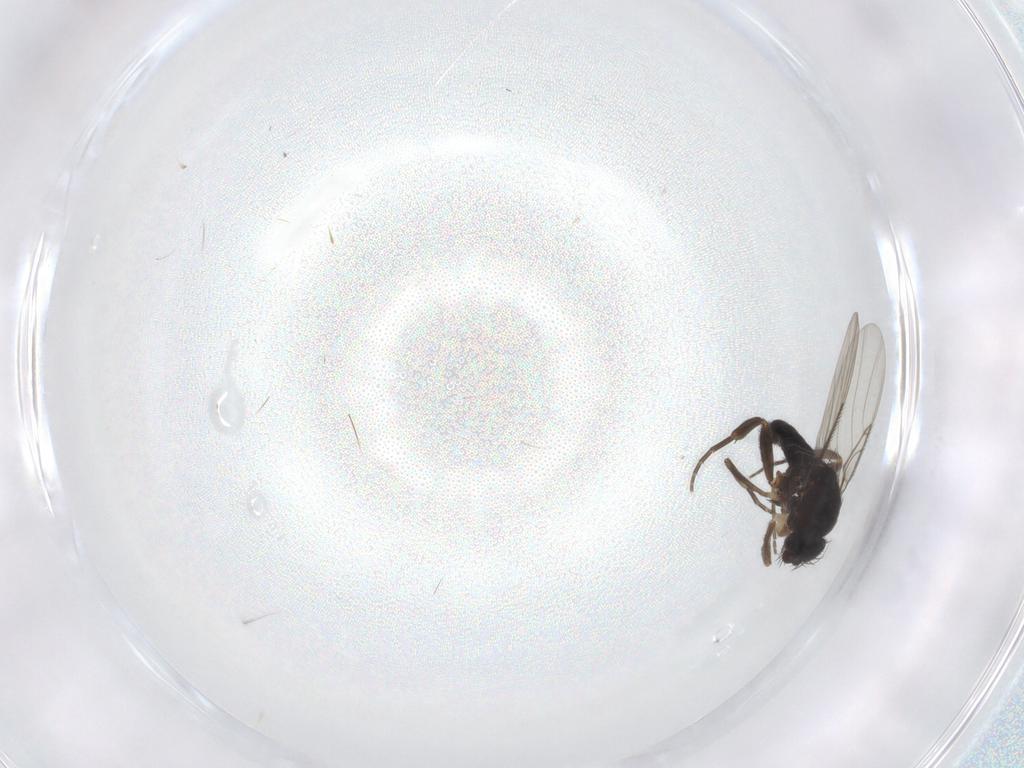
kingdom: Animalia
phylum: Arthropoda
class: Insecta
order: Diptera
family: Phoridae
